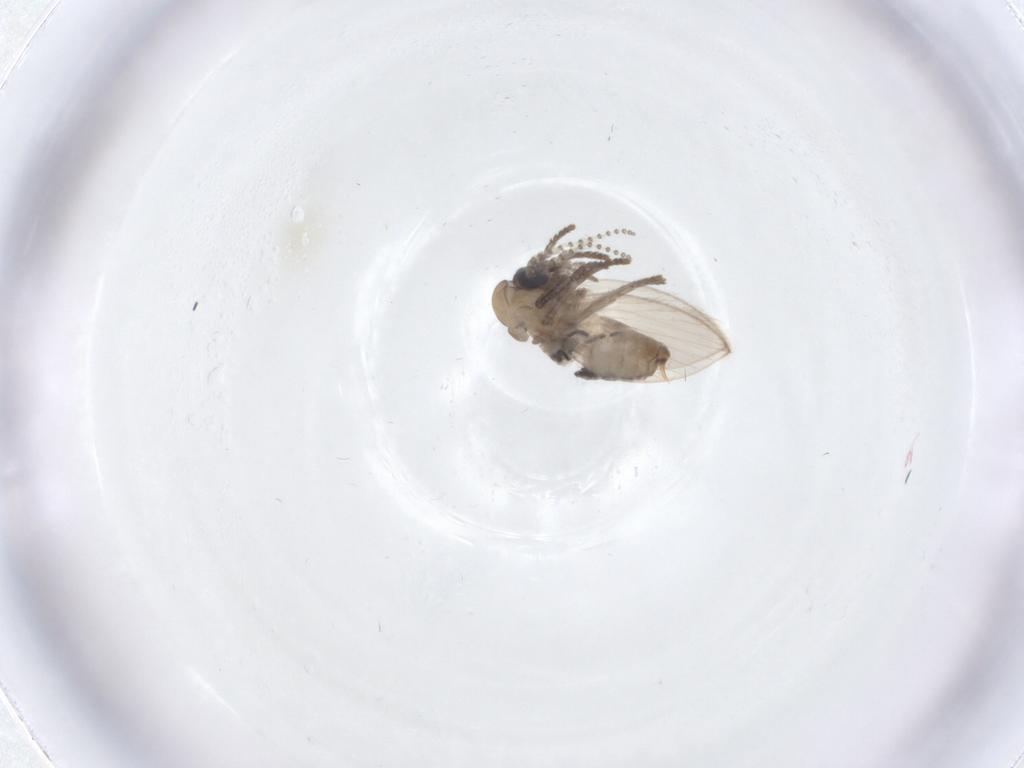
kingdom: Animalia
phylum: Arthropoda
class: Insecta
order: Diptera
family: Psychodidae
